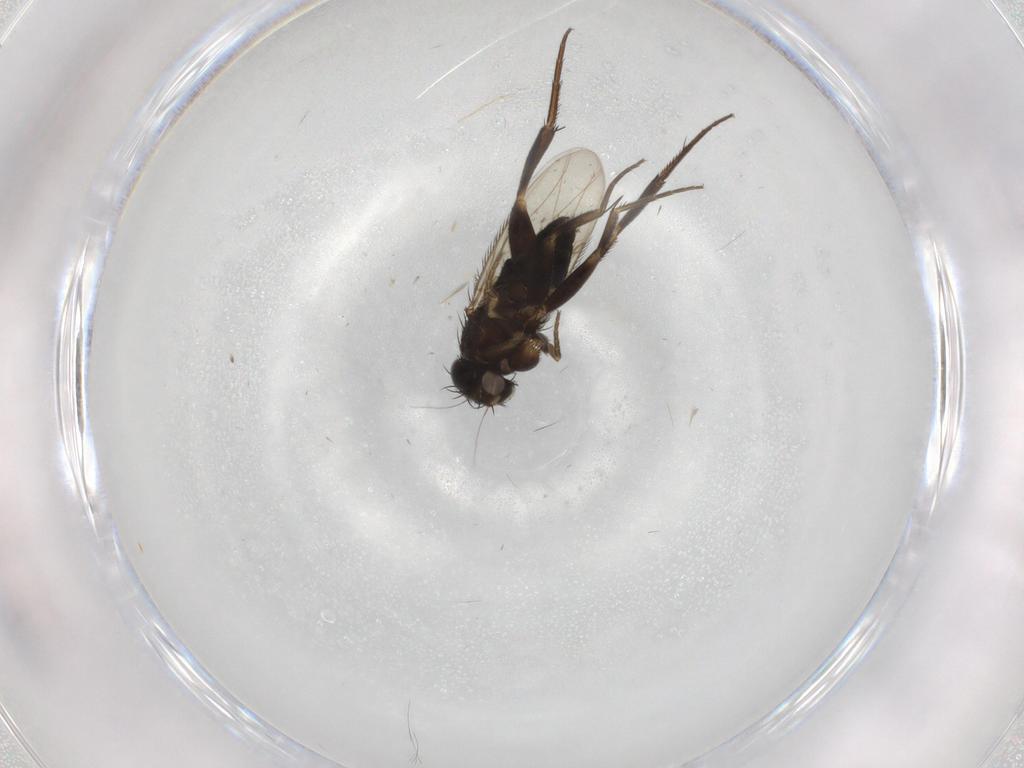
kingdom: Animalia
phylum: Arthropoda
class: Insecta
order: Diptera
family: Phoridae
